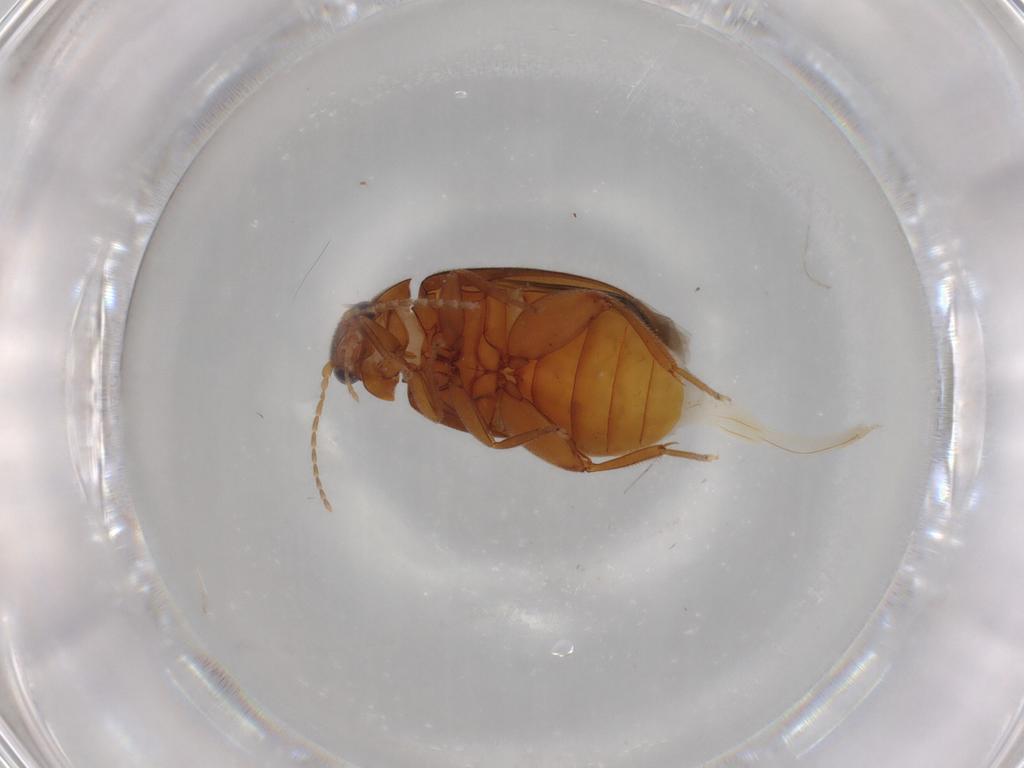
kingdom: Animalia
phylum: Arthropoda
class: Insecta
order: Coleoptera
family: Scirtidae
